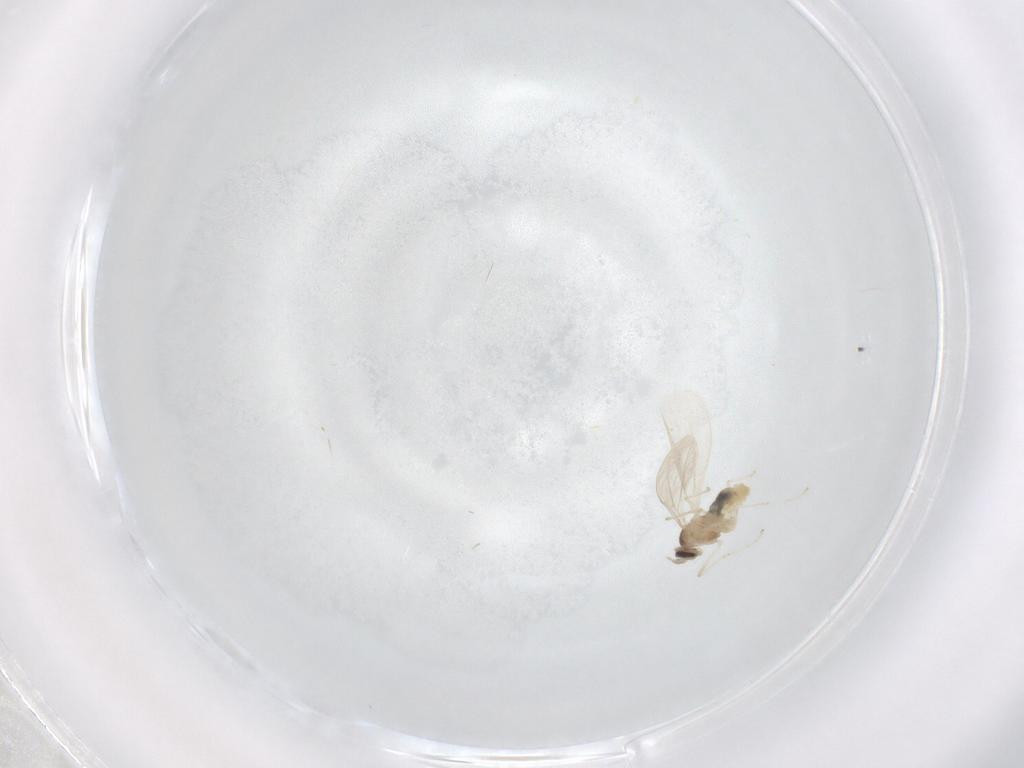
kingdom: Animalia
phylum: Arthropoda
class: Insecta
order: Diptera
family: Cecidomyiidae
